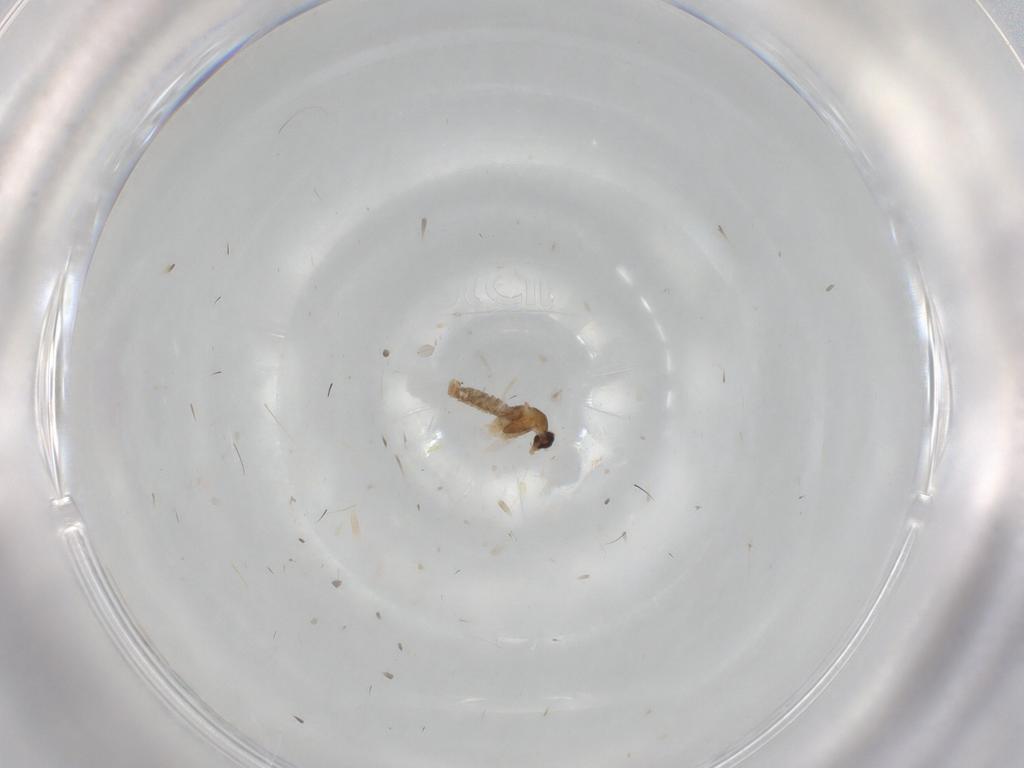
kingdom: Animalia
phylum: Arthropoda
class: Insecta
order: Diptera
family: Cecidomyiidae
